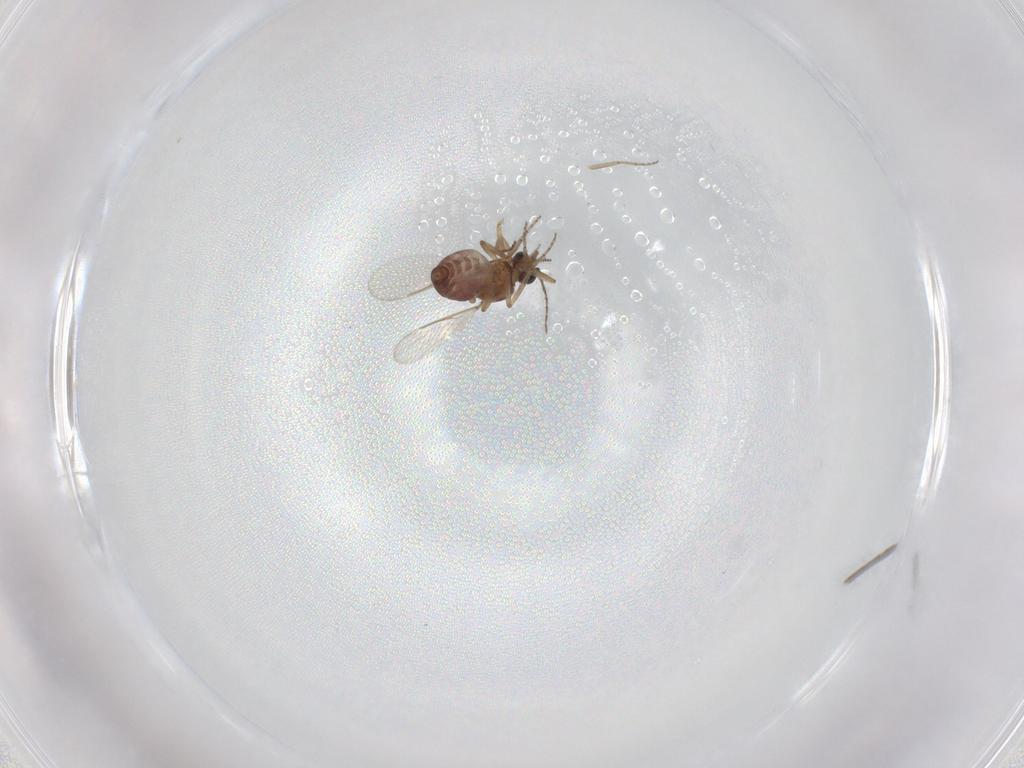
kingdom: Animalia
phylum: Arthropoda
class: Insecta
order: Diptera
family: Ceratopogonidae
